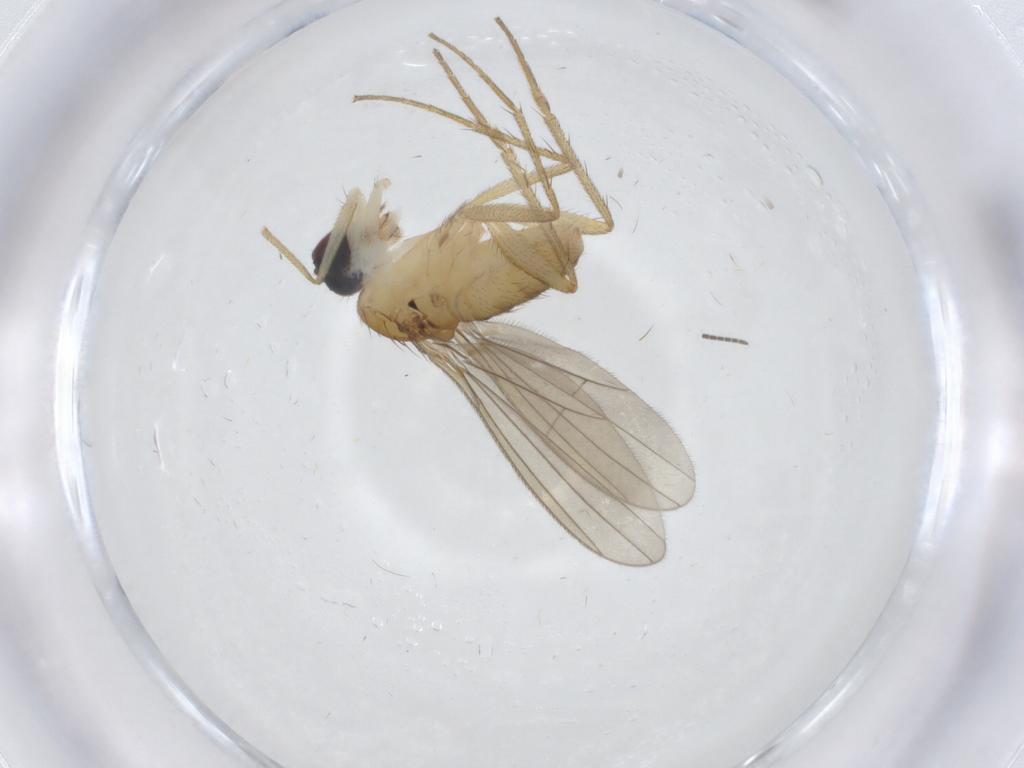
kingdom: Animalia
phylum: Arthropoda
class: Insecta
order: Diptera
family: Dolichopodidae
